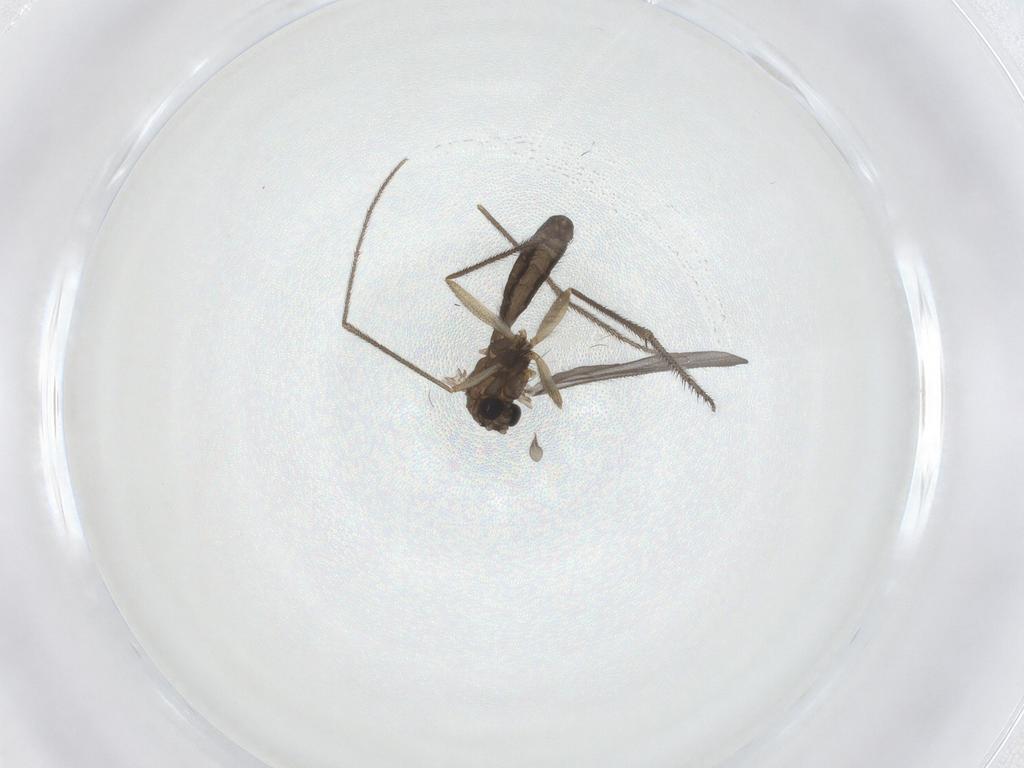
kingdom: Animalia
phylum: Arthropoda
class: Insecta
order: Diptera
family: Ditomyiidae
